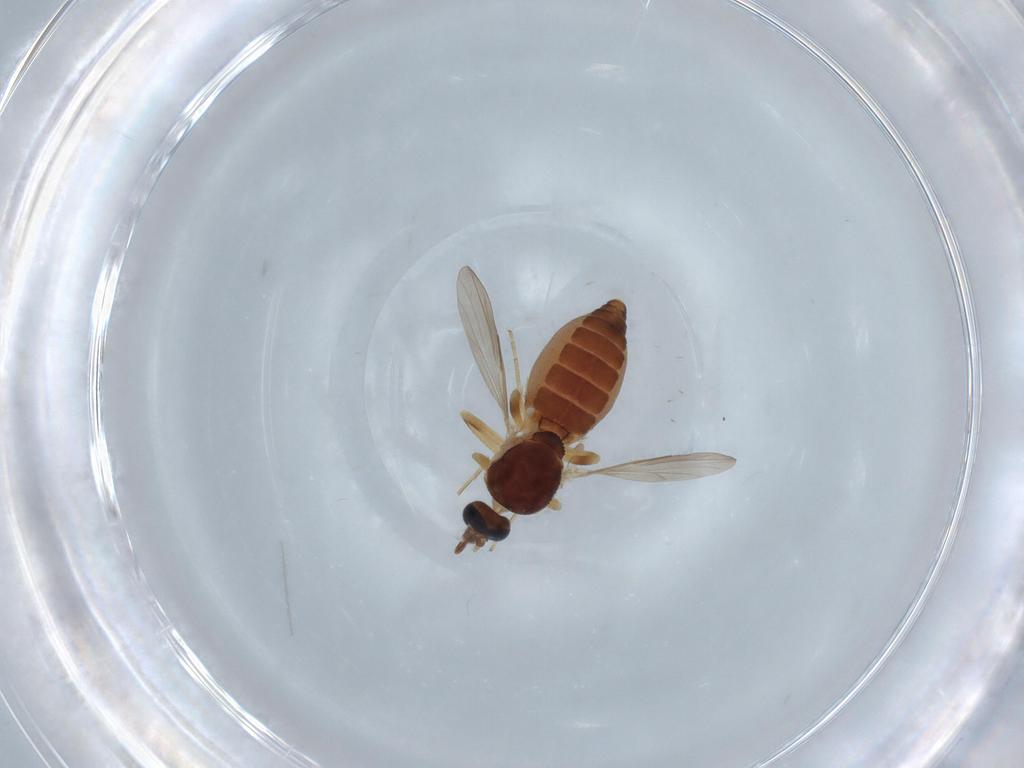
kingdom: Animalia
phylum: Arthropoda
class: Insecta
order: Diptera
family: Ceratopogonidae
